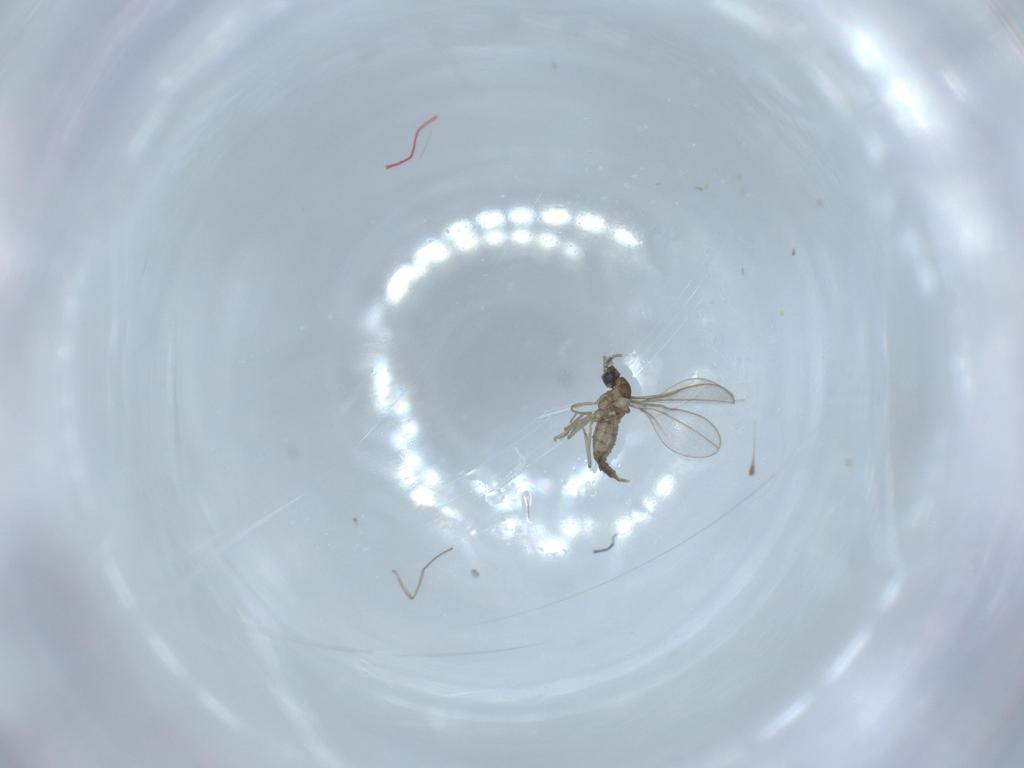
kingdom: Animalia
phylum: Arthropoda
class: Insecta
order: Diptera
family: Cecidomyiidae
